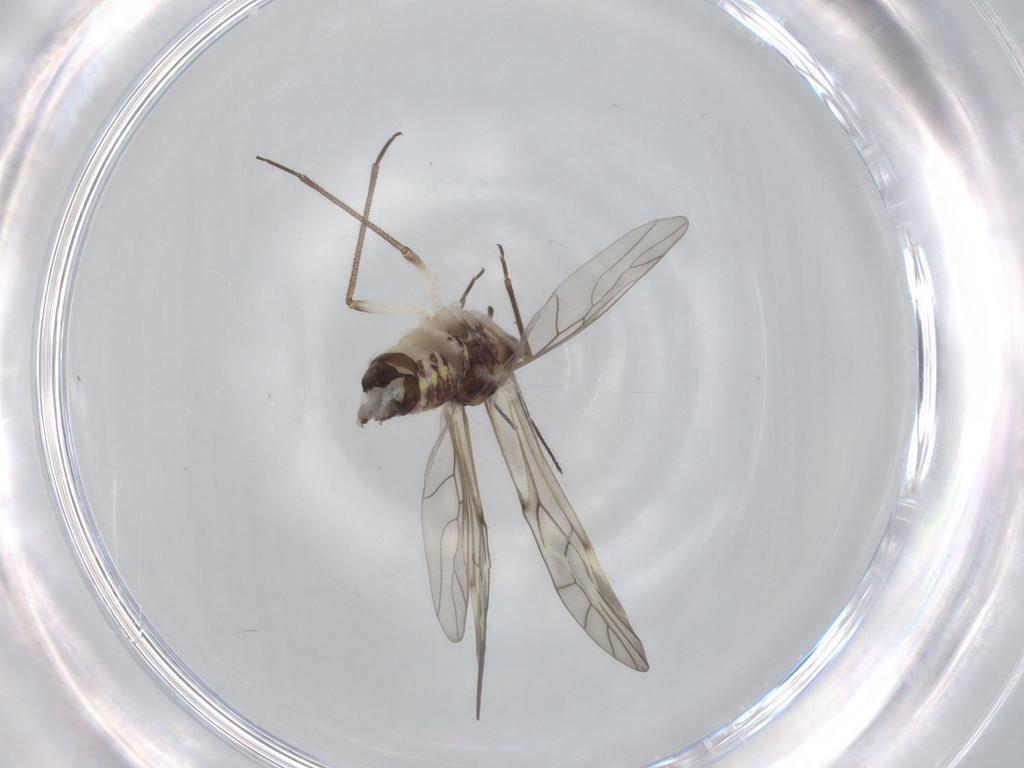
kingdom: Animalia
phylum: Arthropoda
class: Insecta
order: Psocodea
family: Psocidae
